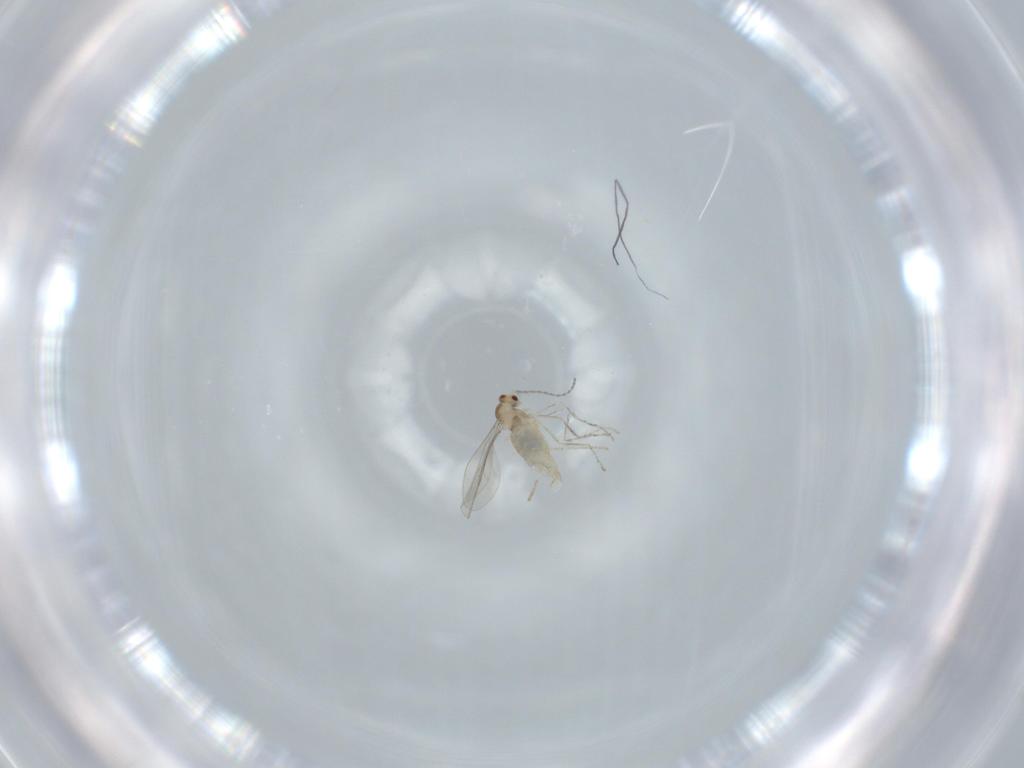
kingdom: Animalia
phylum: Arthropoda
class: Insecta
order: Diptera
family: Cecidomyiidae
